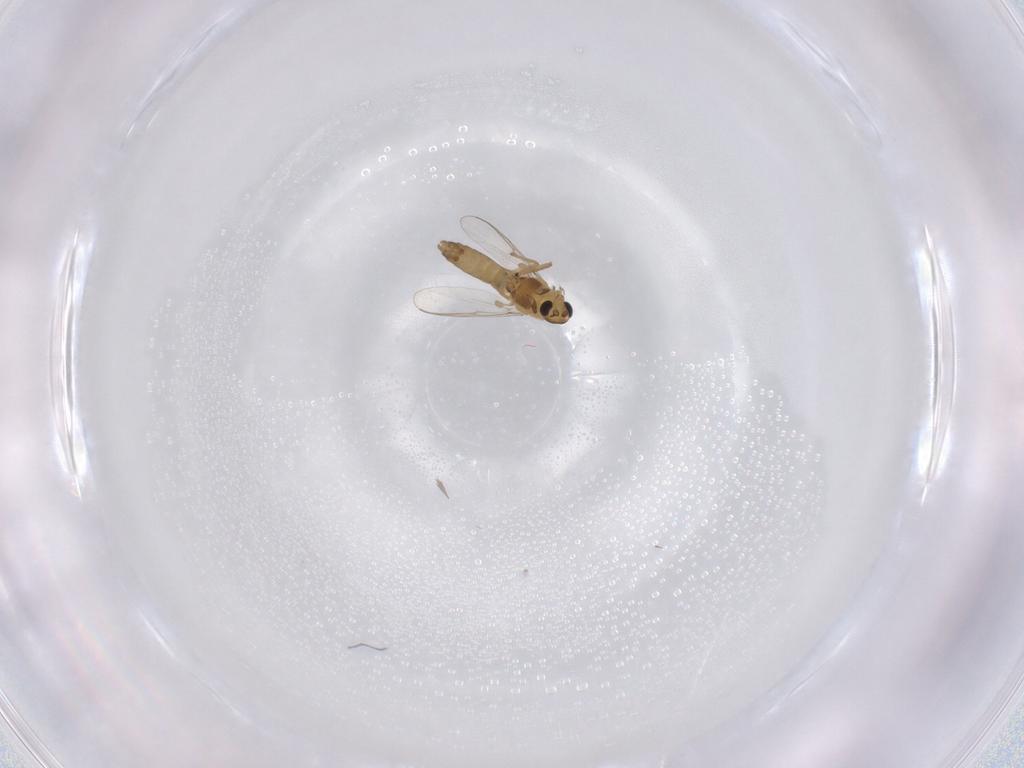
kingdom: Animalia
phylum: Arthropoda
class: Insecta
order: Diptera
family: Chironomidae
